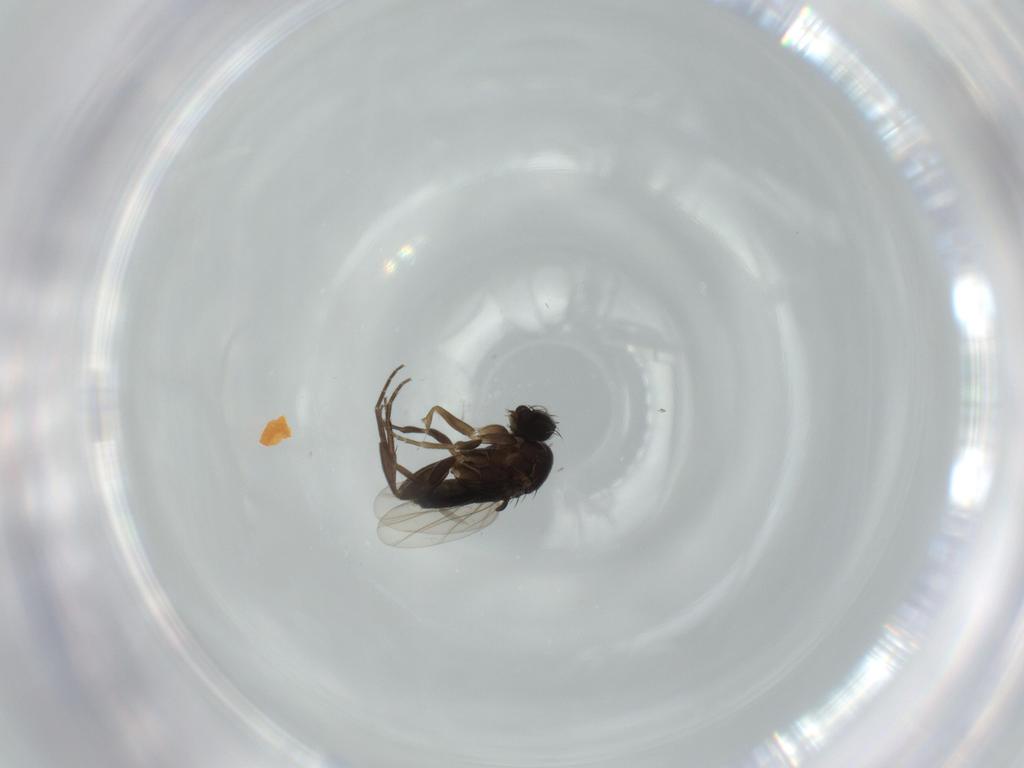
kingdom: Animalia
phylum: Arthropoda
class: Insecta
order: Diptera
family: Phoridae
